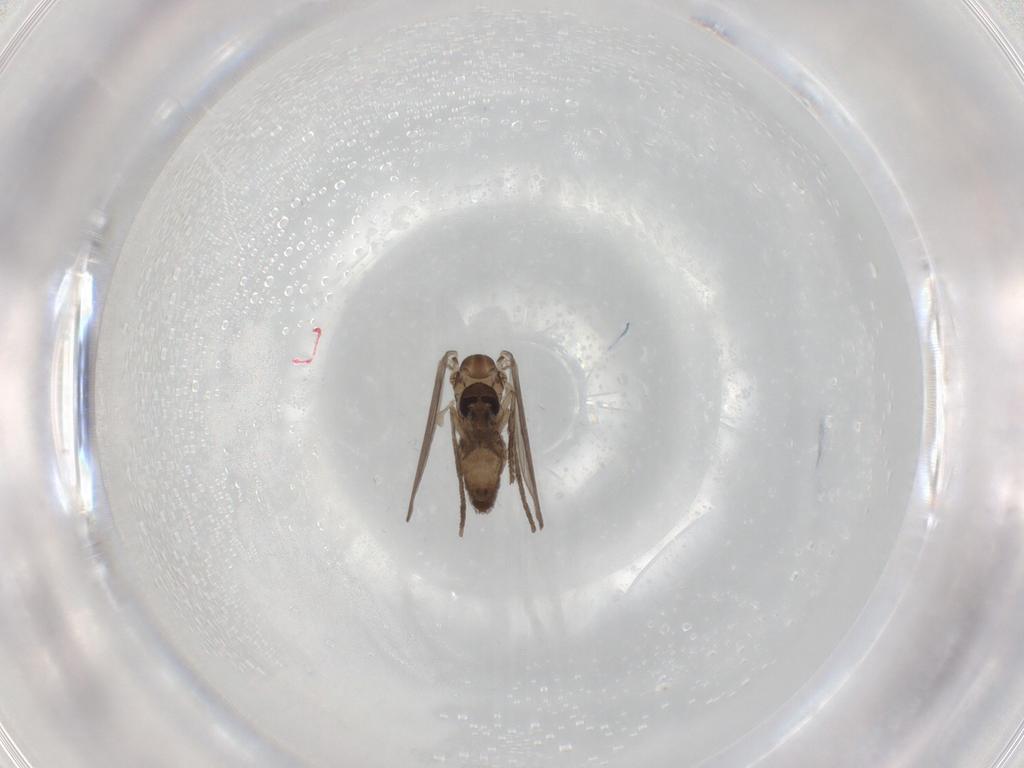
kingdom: Animalia
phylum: Arthropoda
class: Insecta
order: Diptera
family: Psychodidae
